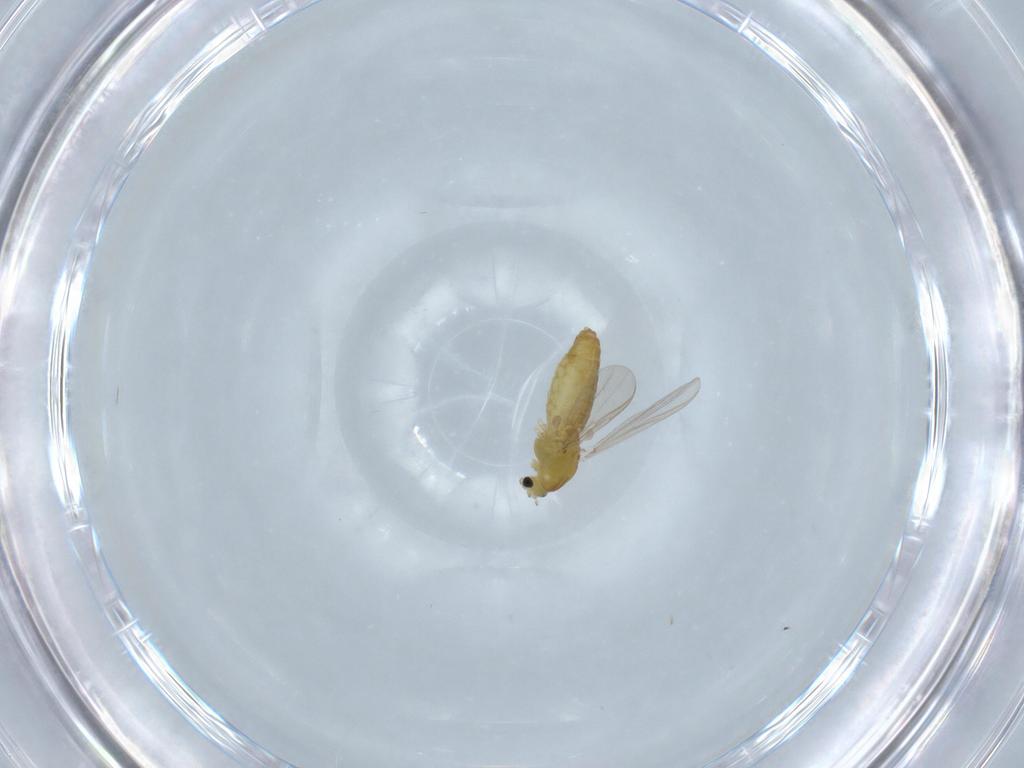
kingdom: Animalia
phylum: Arthropoda
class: Insecta
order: Diptera
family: Chironomidae
